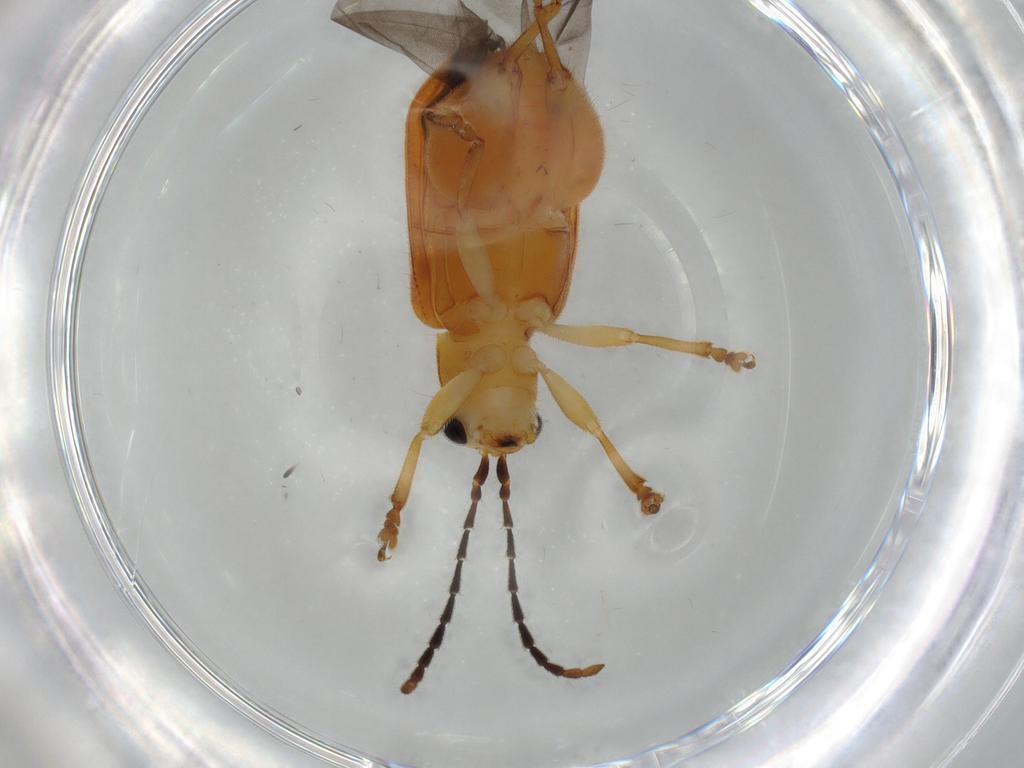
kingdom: Animalia
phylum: Arthropoda
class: Insecta
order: Coleoptera
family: Chrysomelidae
